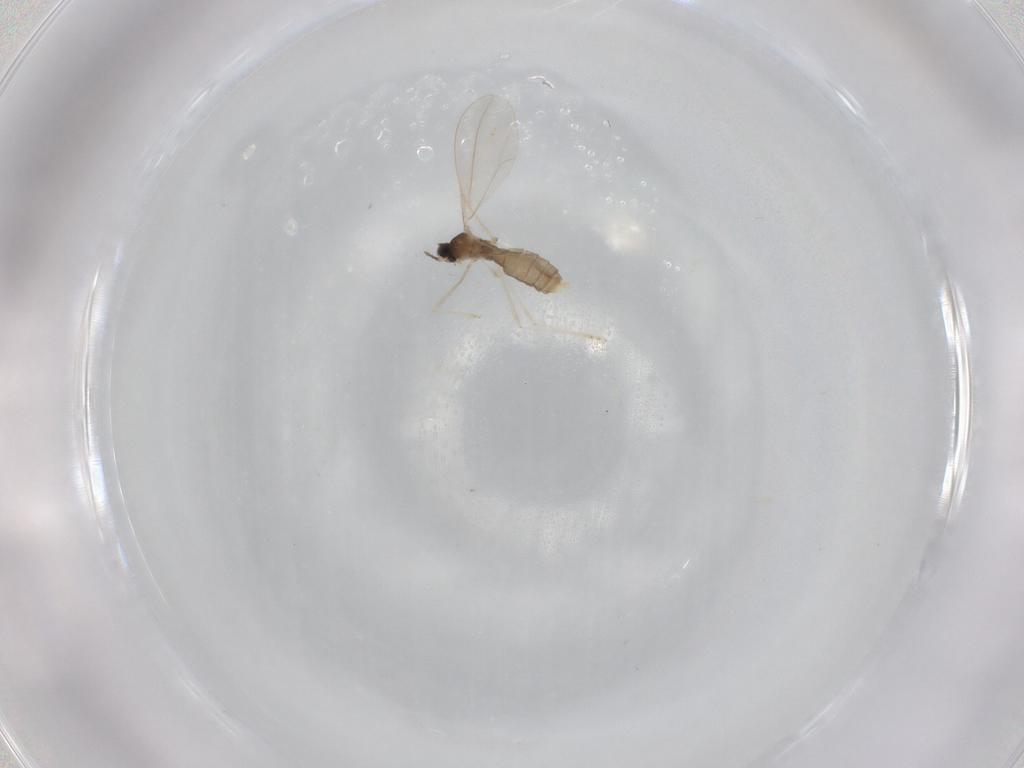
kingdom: Animalia
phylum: Arthropoda
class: Insecta
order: Diptera
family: Cecidomyiidae
